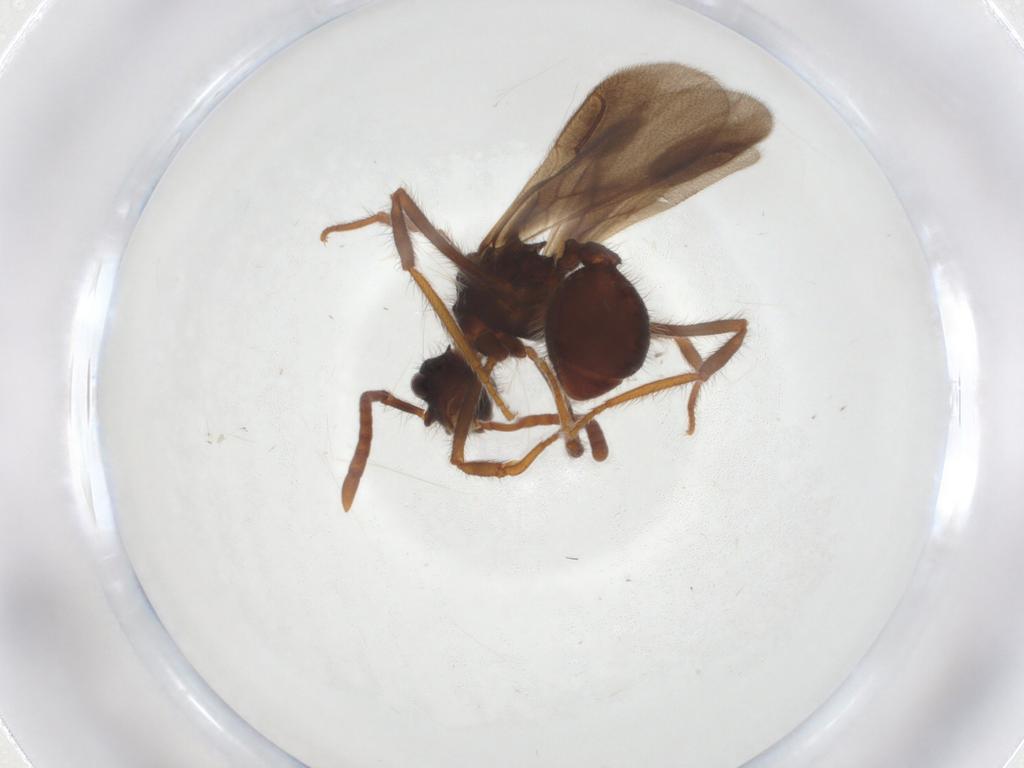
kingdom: Animalia
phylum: Arthropoda
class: Insecta
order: Hymenoptera
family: Formicidae
